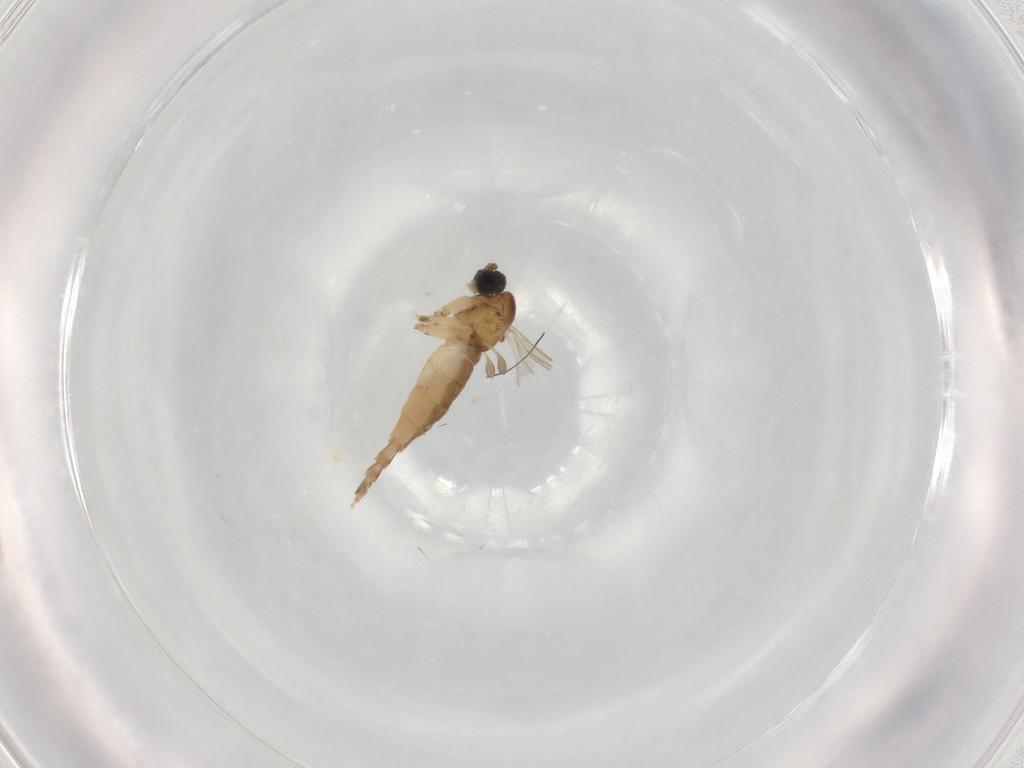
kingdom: Animalia
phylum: Arthropoda
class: Insecta
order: Diptera
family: Sciaridae
